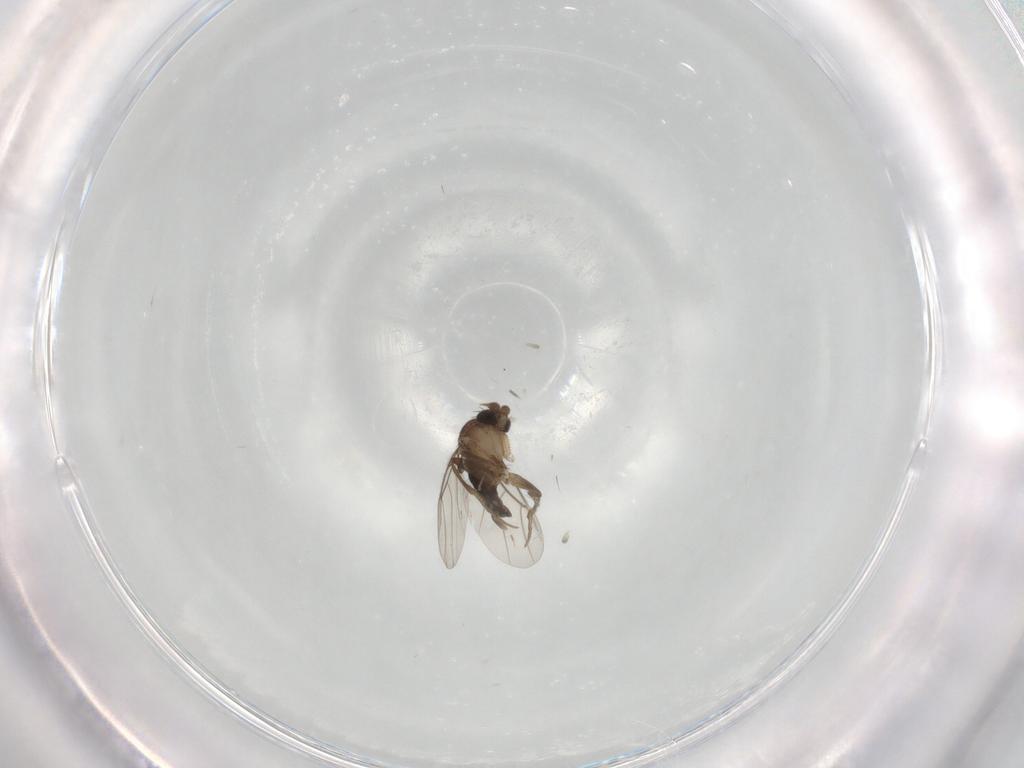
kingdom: Animalia
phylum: Arthropoda
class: Insecta
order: Diptera
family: Phoridae
